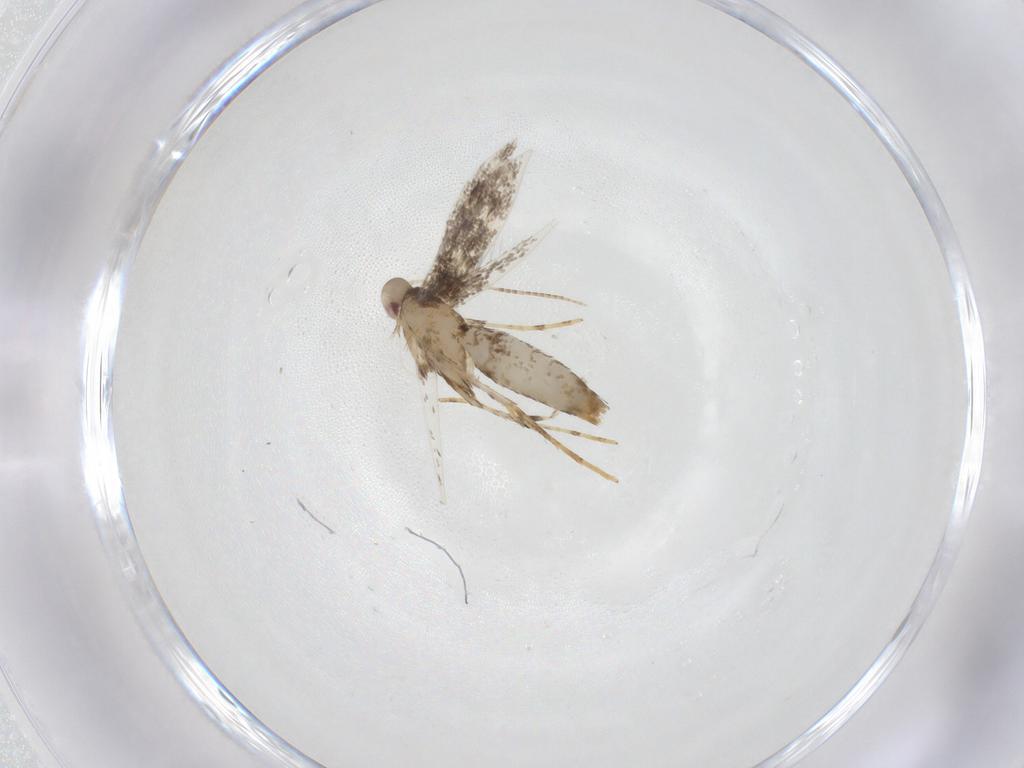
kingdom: Animalia
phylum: Arthropoda
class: Insecta
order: Lepidoptera
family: Gracillariidae
